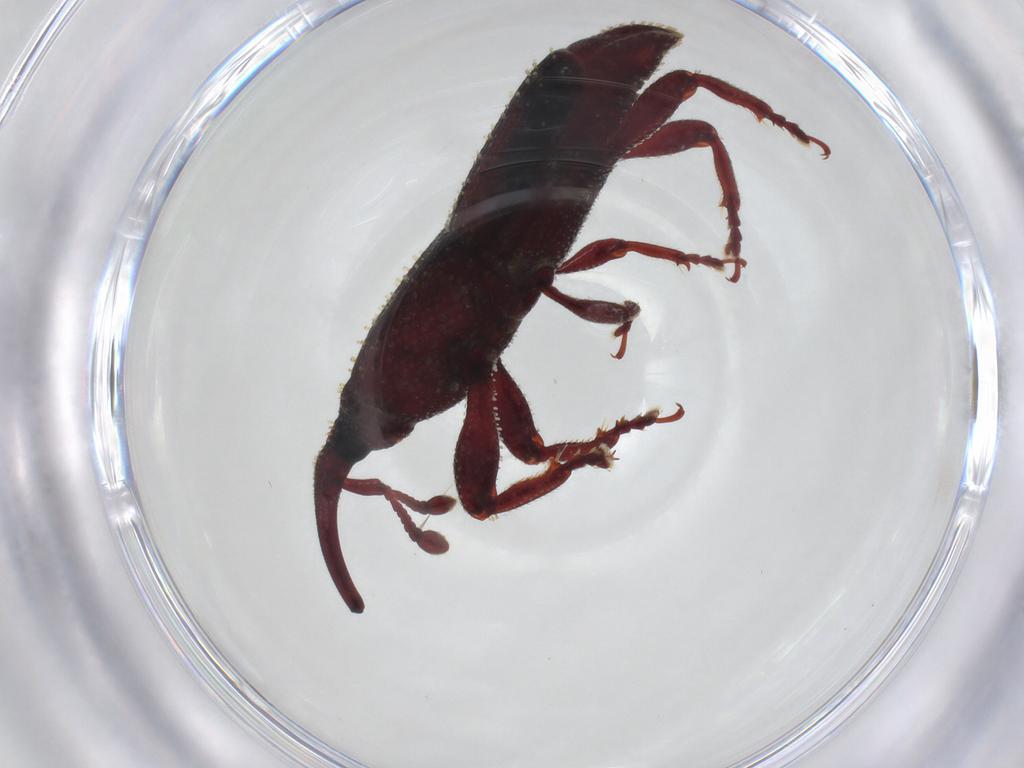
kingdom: Animalia
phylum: Arthropoda
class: Insecta
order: Coleoptera
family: Curculionidae
